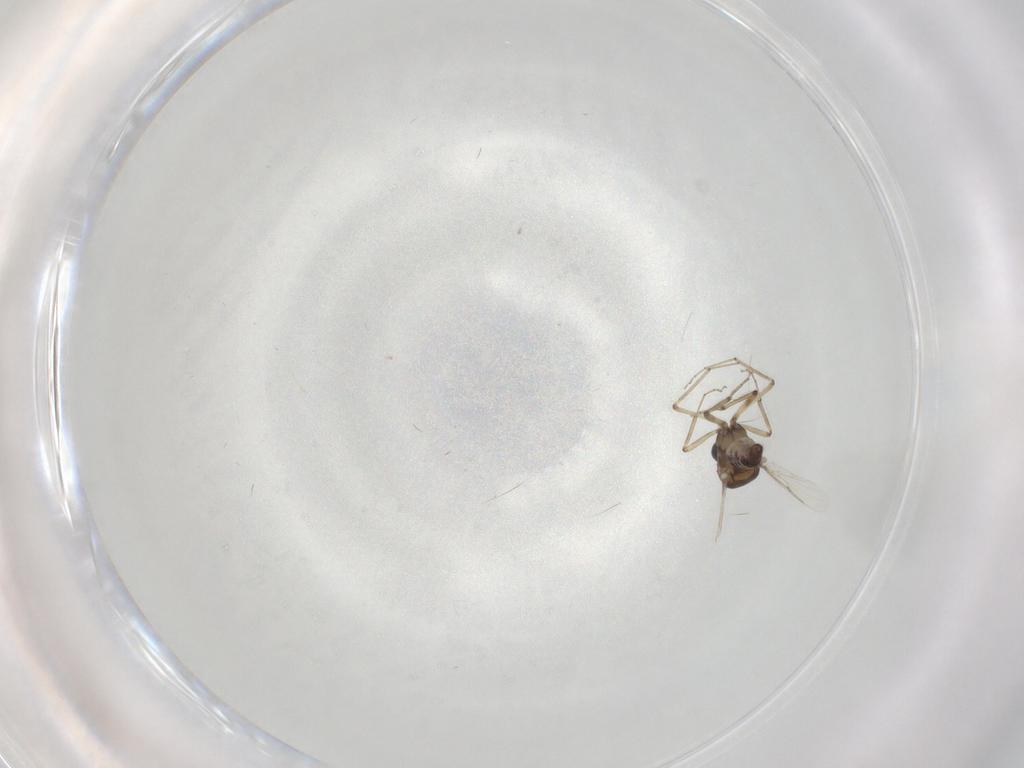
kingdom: Animalia
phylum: Arthropoda
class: Insecta
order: Diptera
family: Ceratopogonidae
